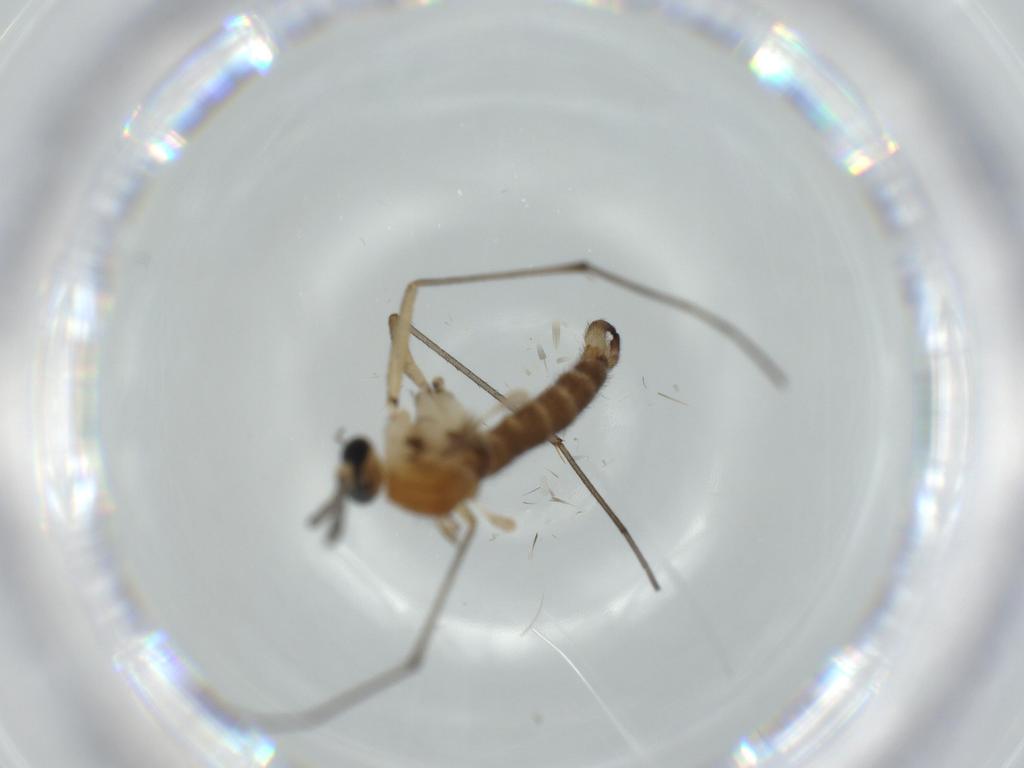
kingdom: Animalia
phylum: Arthropoda
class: Insecta
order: Diptera
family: Sciaridae
